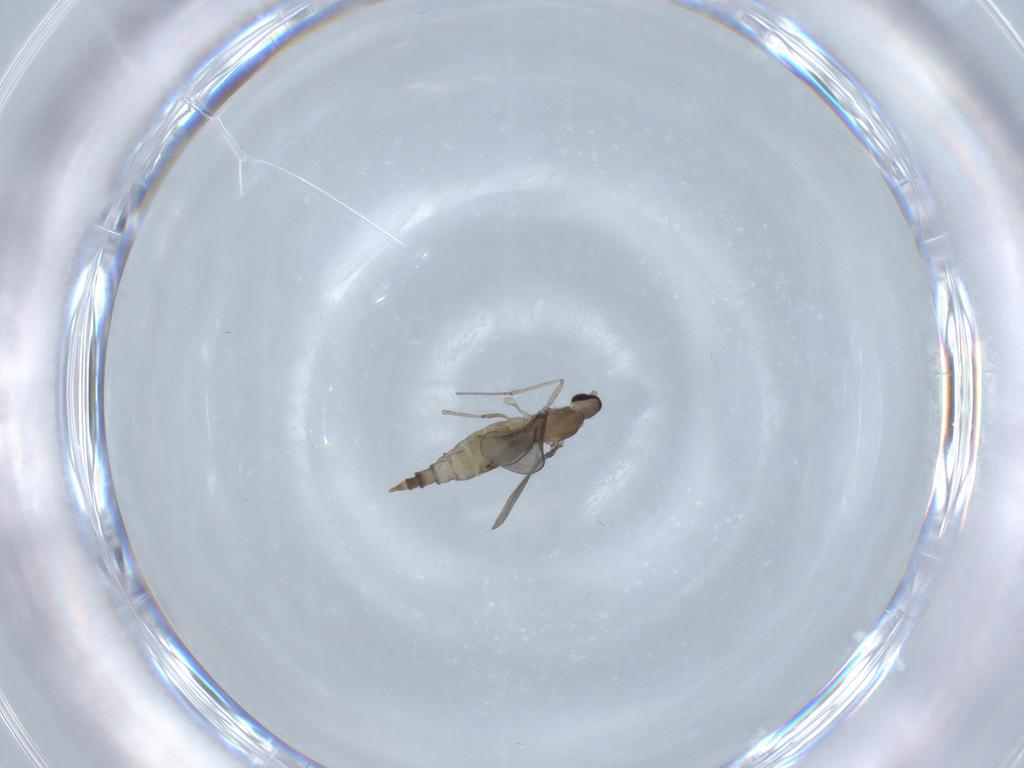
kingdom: Animalia
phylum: Arthropoda
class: Insecta
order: Diptera
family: Cecidomyiidae
